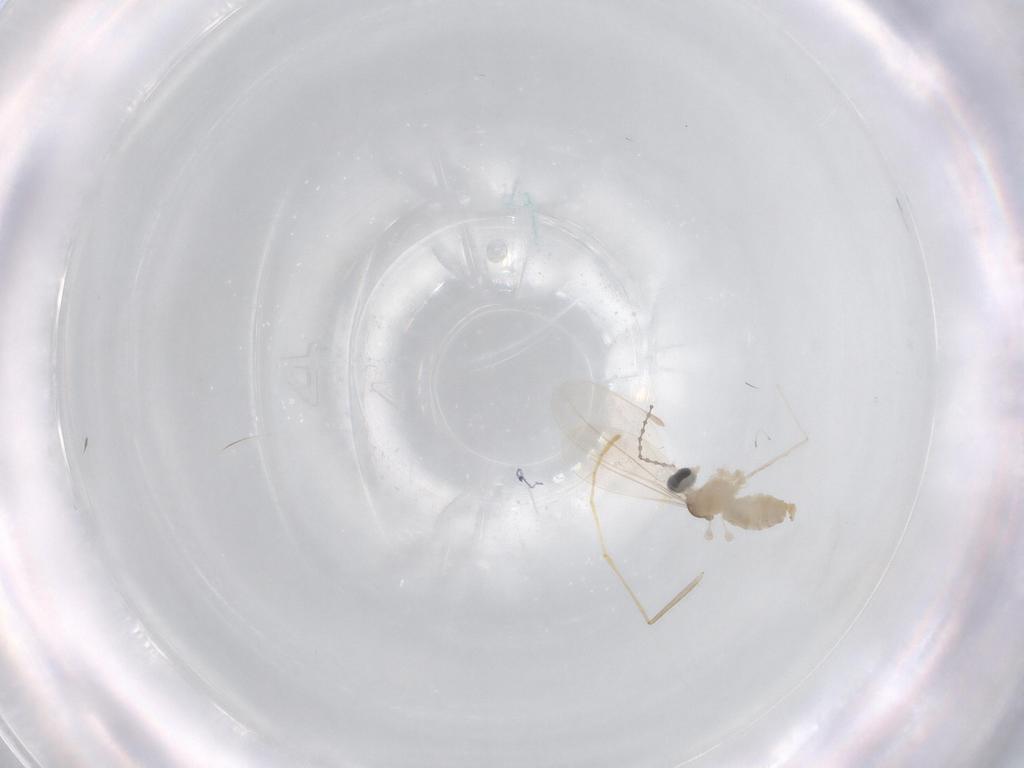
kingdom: Animalia
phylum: Arthropoda
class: Insecta
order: Diptera
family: Cecidomyiidae
